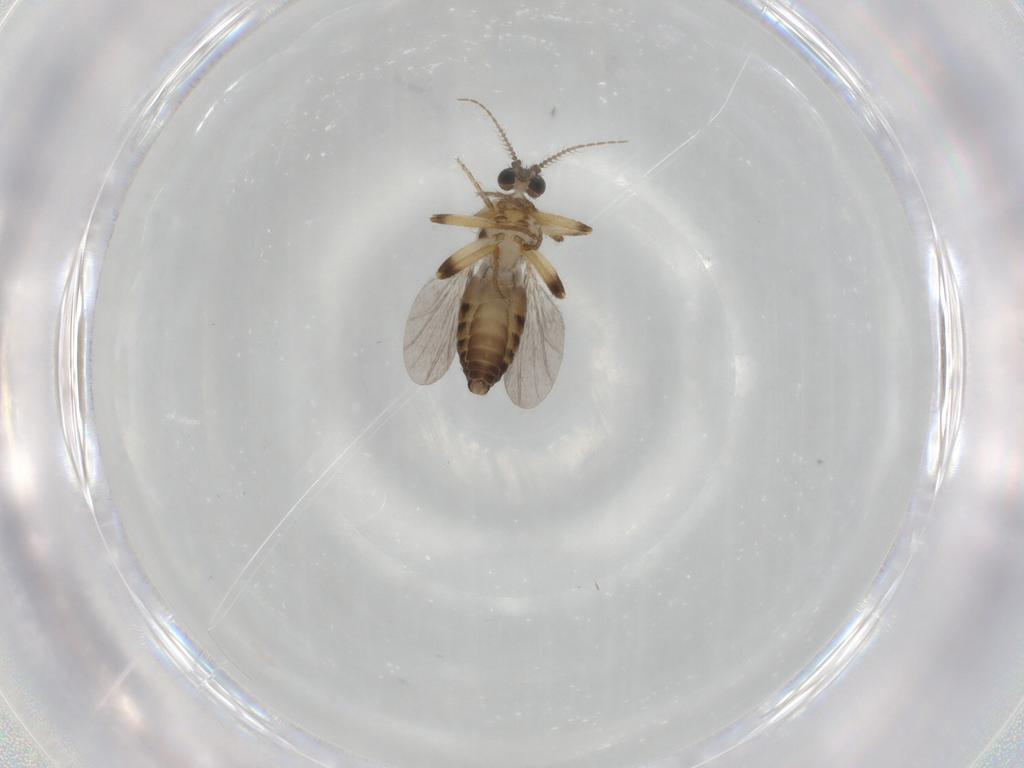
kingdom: Animalia
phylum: Arthropoda
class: Insecta
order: Diptera
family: Ceratopogonidae
